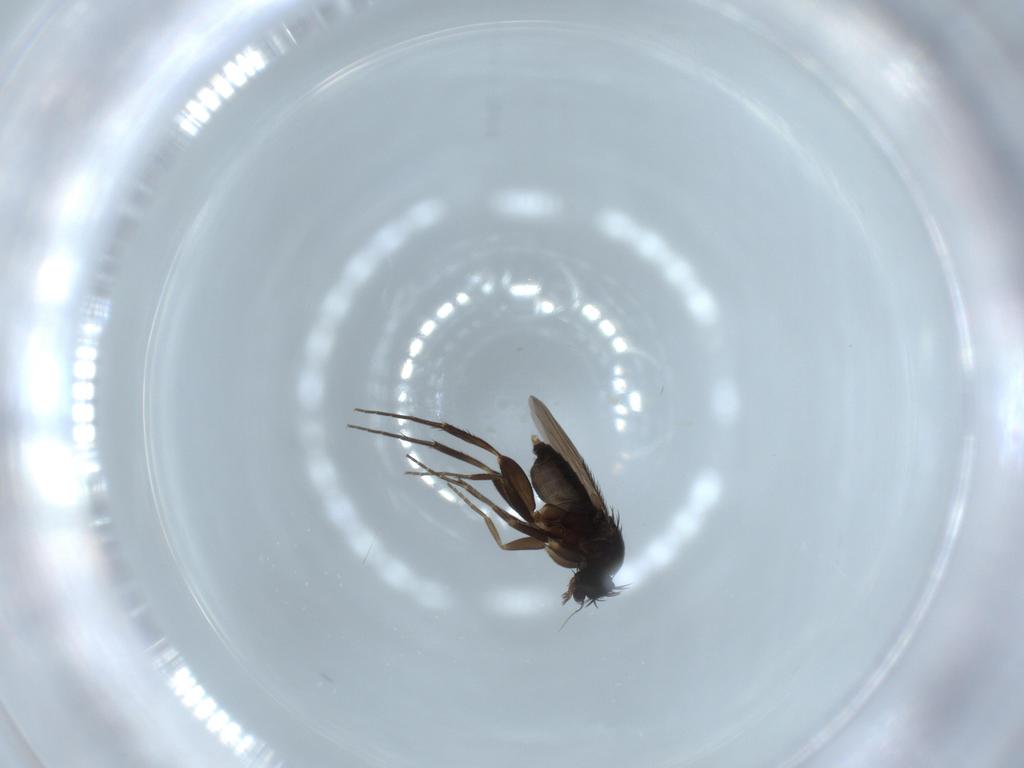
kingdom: Animalia
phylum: Arthropoda
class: Insecta
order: Diptera
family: Phoridae
